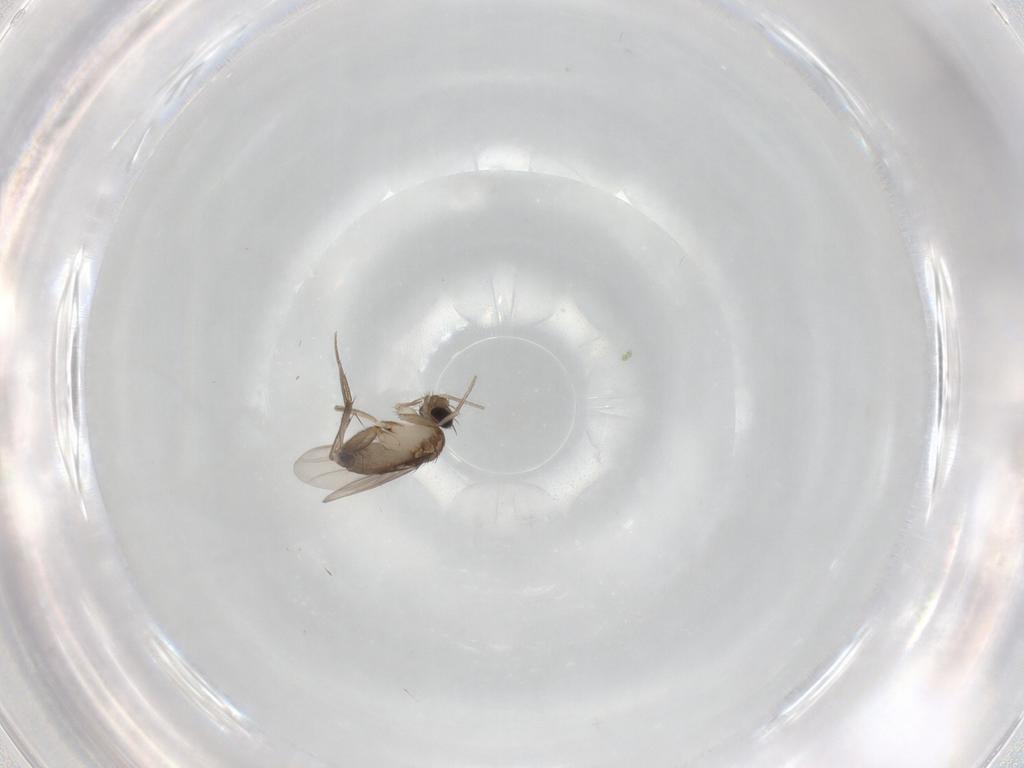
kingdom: Animalia
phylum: Arthropoda
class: Insecta
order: Diptera
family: Phoridae
